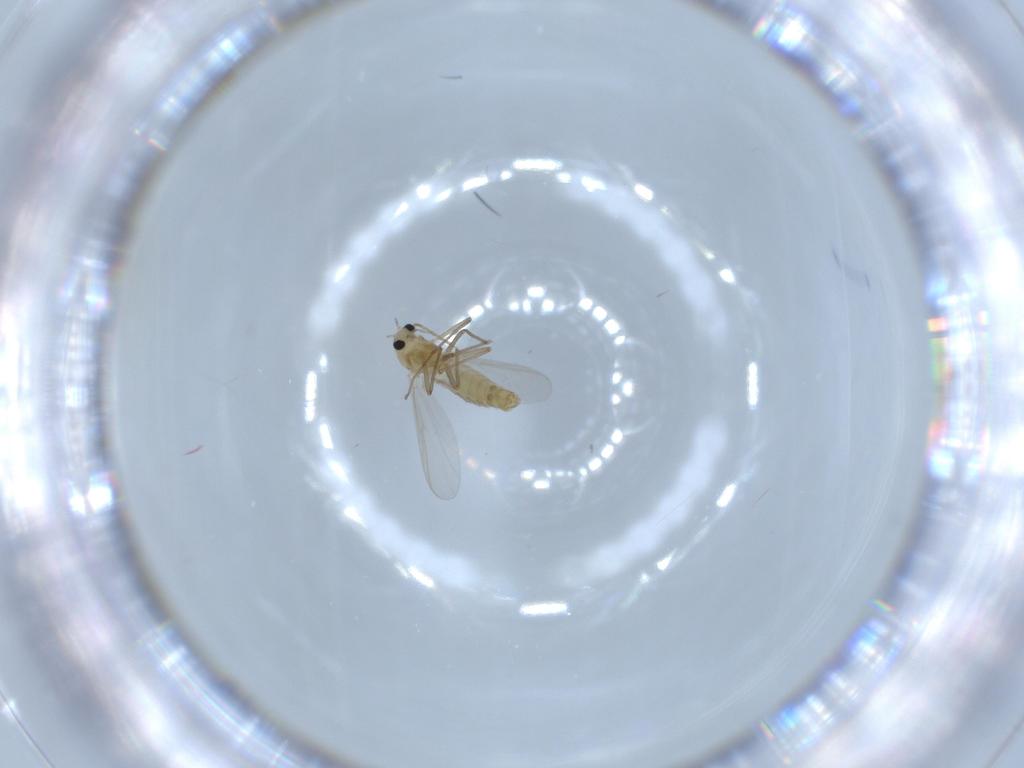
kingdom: Animalia
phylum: Arthropoda
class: Insecta
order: Diptera
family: Chironomidae
